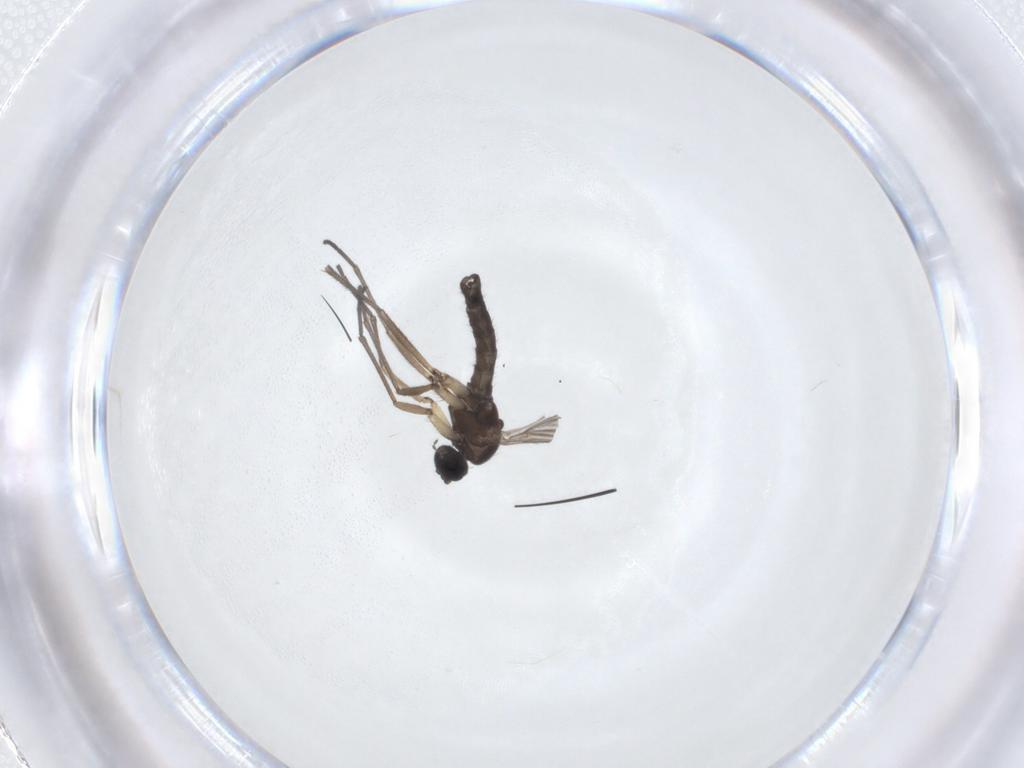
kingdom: Animalia
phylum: Arthropoda
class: Insecta
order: Diptera
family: Sciaridae
